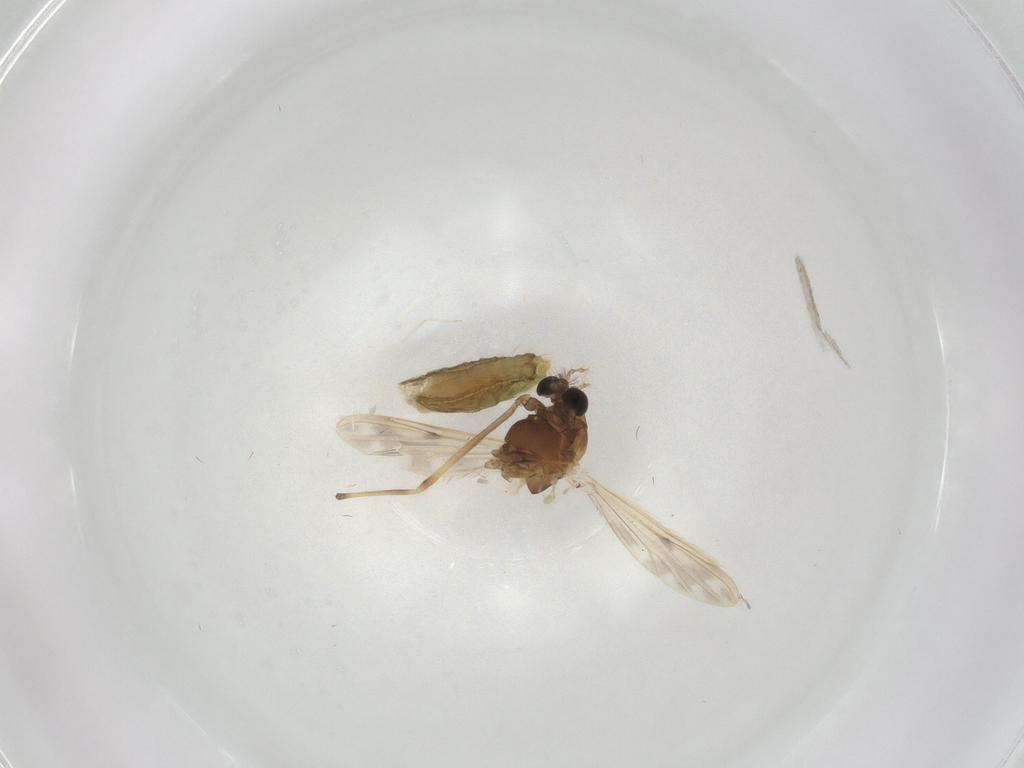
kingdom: Animalia
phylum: Arthropoda
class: Insecta
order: Diptera
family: Chironomidae
